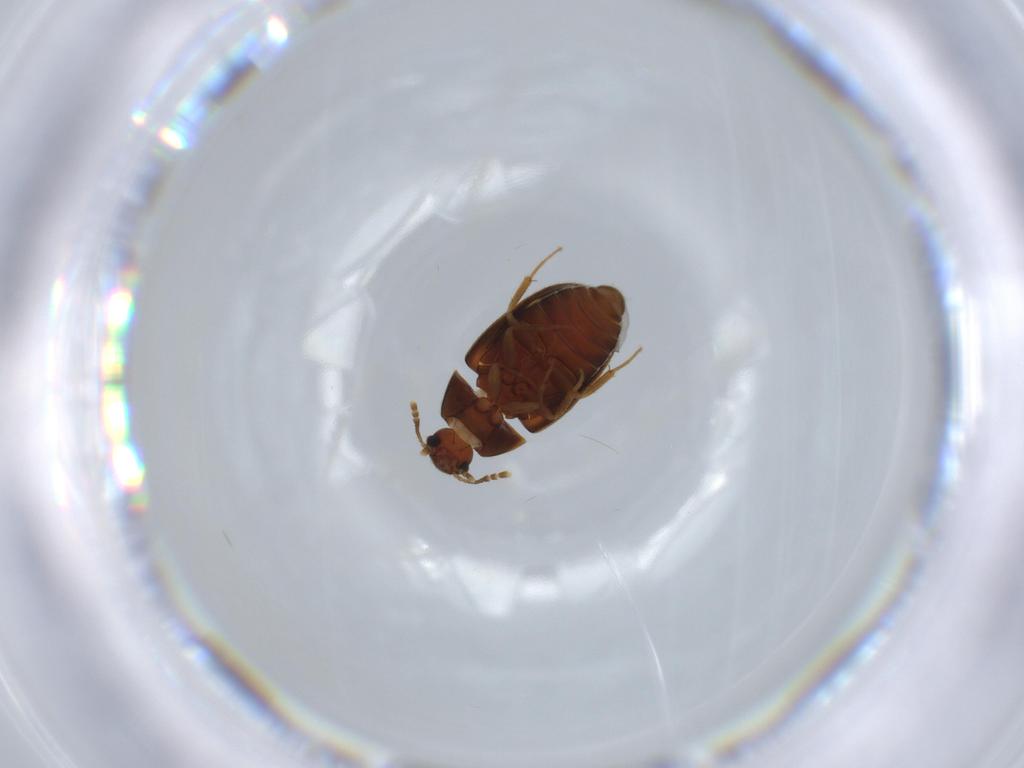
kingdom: Animalia
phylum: Arthropoda
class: Insecta
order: Coleoptera
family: Mycetophagidae
